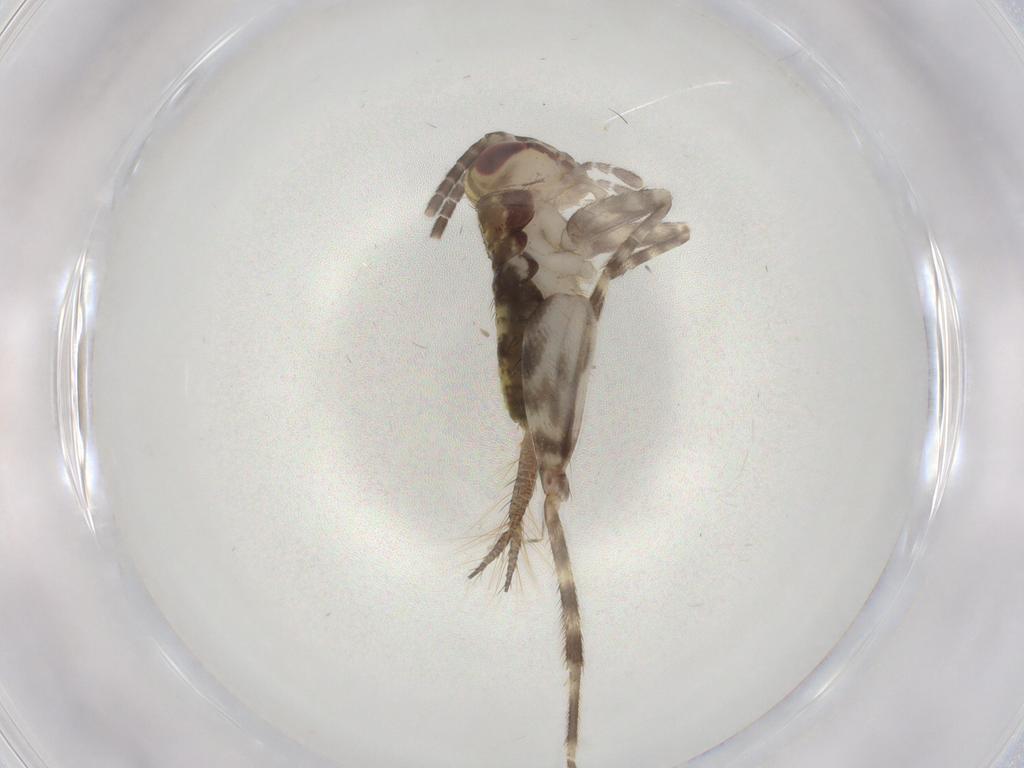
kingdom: Animalia
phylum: Arthropoda
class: Insecta
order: Orthoptera
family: Gryllidae
